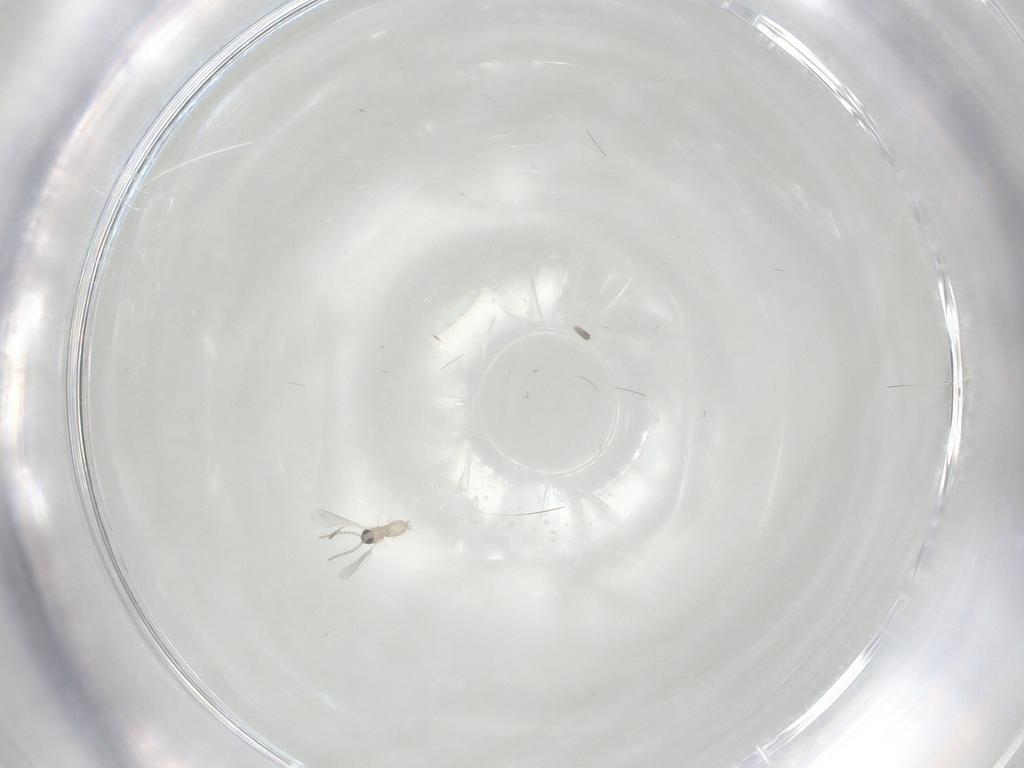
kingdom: Animalia
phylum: Arthropoda
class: Insecta
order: Diptera
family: Cecidomyiidae
